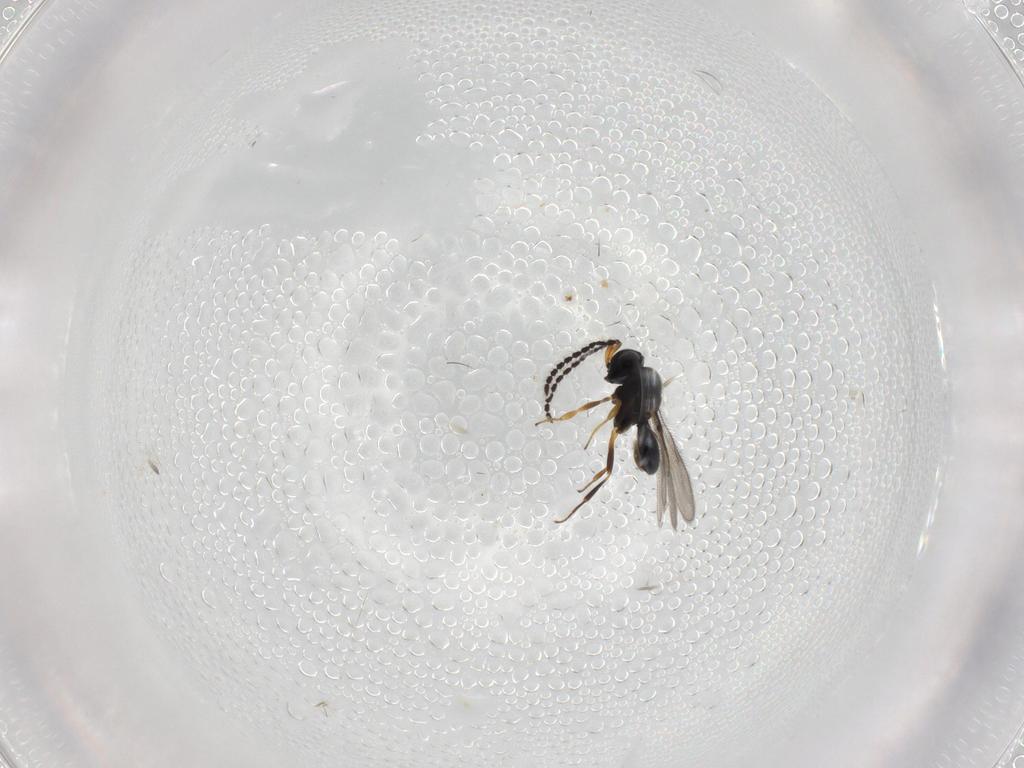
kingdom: Animalia
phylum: Arthropoda
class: Insecta
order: Hymenoptera
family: Scelionidae
